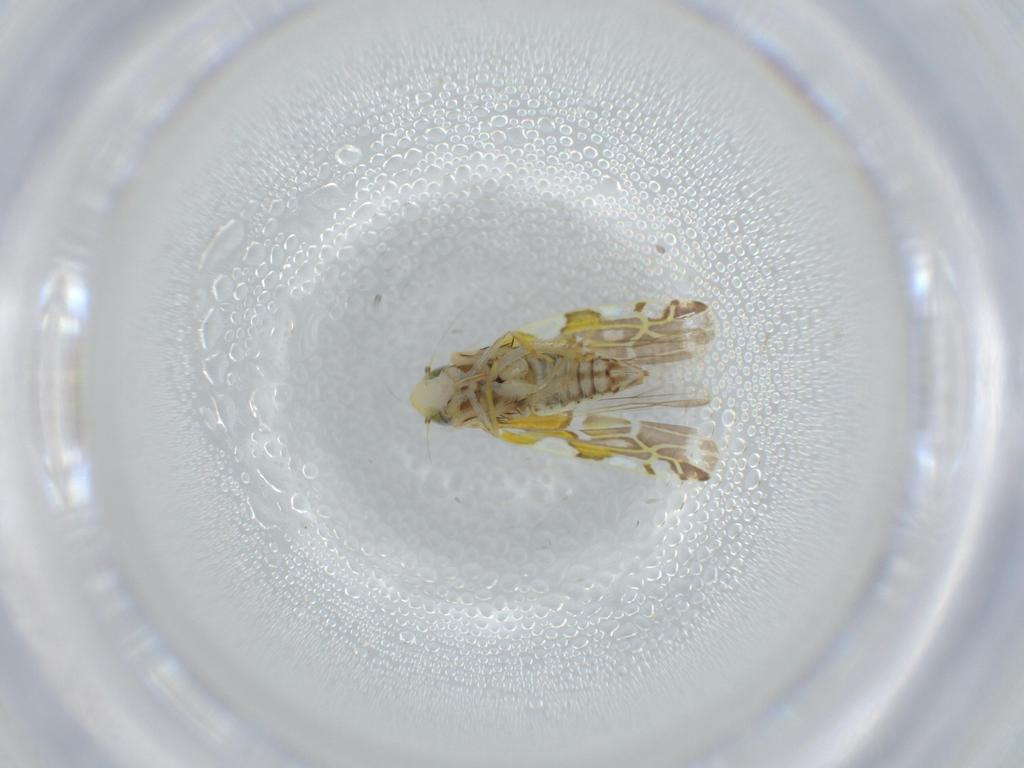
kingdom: Animalia
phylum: Arthropoda
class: Insecta
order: Hemiptera
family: Cicadellidae
